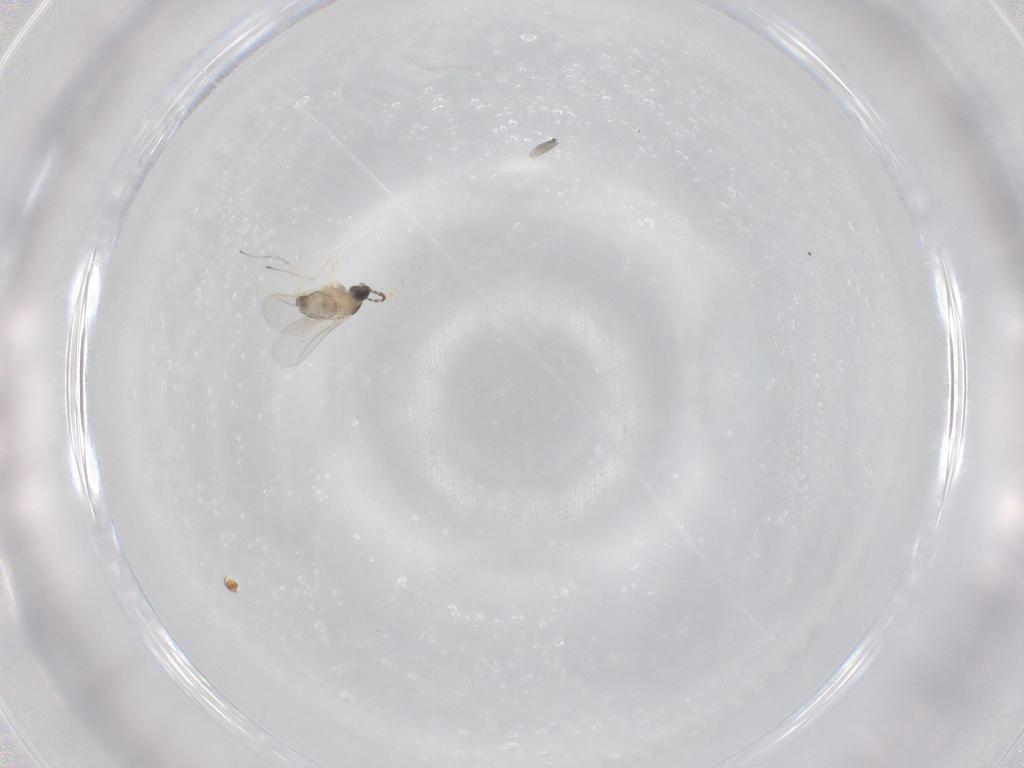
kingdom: Animalia
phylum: Arthropoda
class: Insecta
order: Diptera
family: Cecidomyiidae
